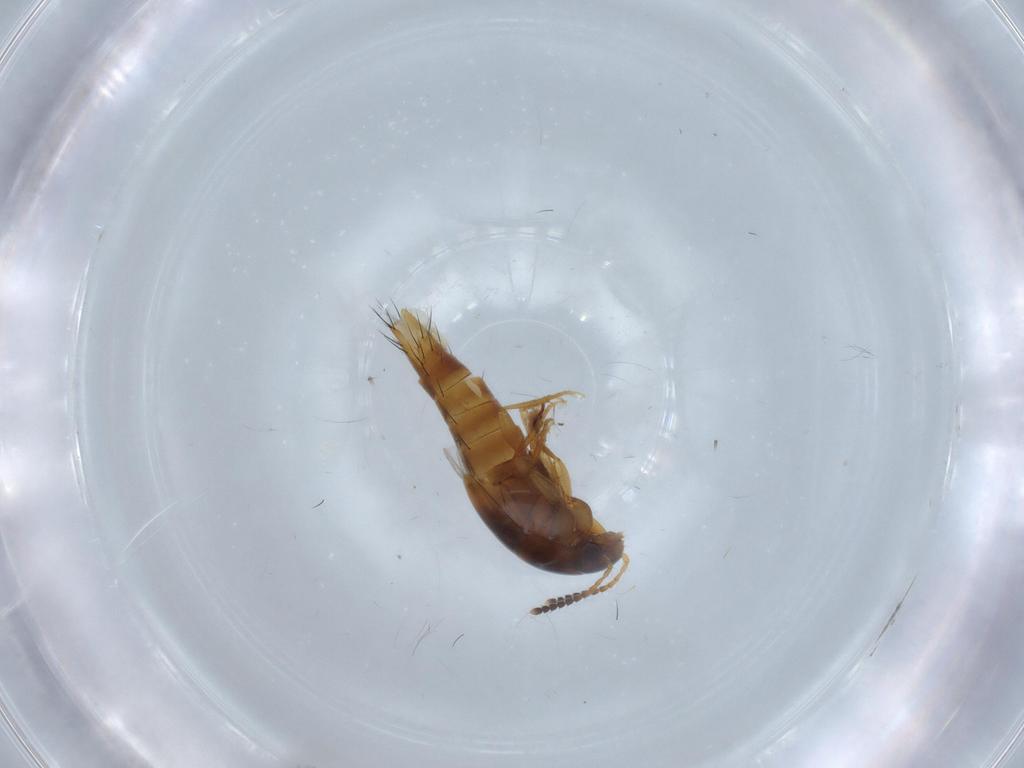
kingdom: Animalia
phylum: Arthropoda
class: Insecta
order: Coleoptera
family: Staphylinidae
